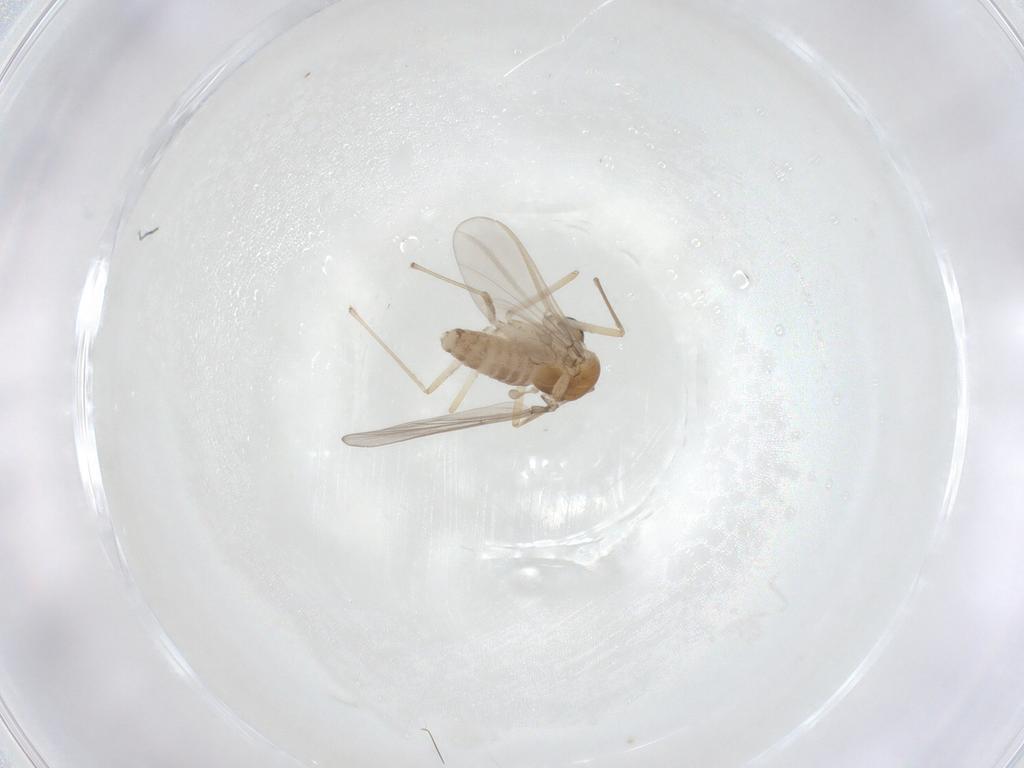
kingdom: Animalia
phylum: Arthropoda
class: Insecta
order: Diptera
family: Chironomidae
